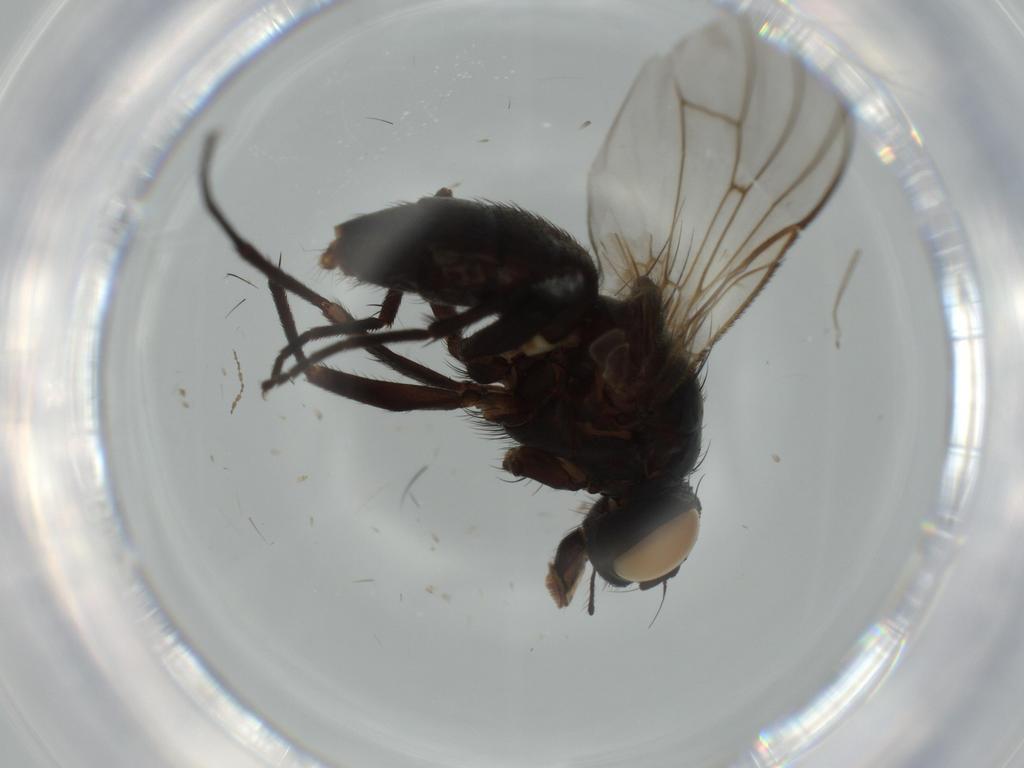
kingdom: Animalia
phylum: Arthropoda
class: Insecta
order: Diptera
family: Muscidae
